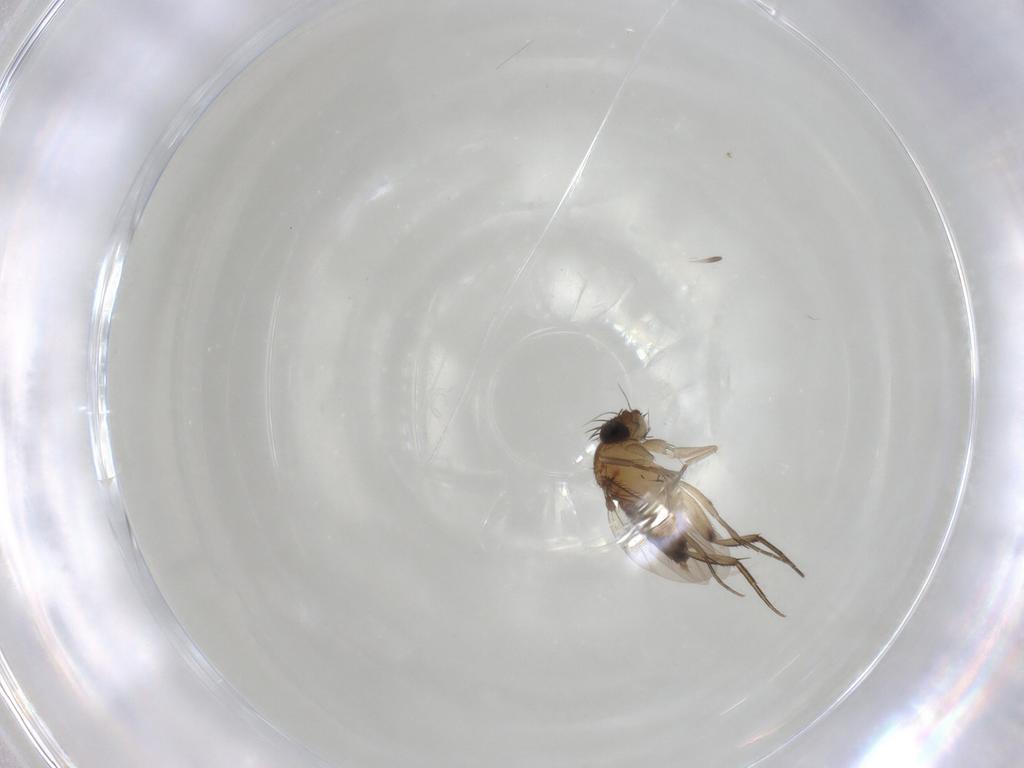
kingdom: Animalia
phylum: Arthropoda
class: Insecta
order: Diptera
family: Phoridae
